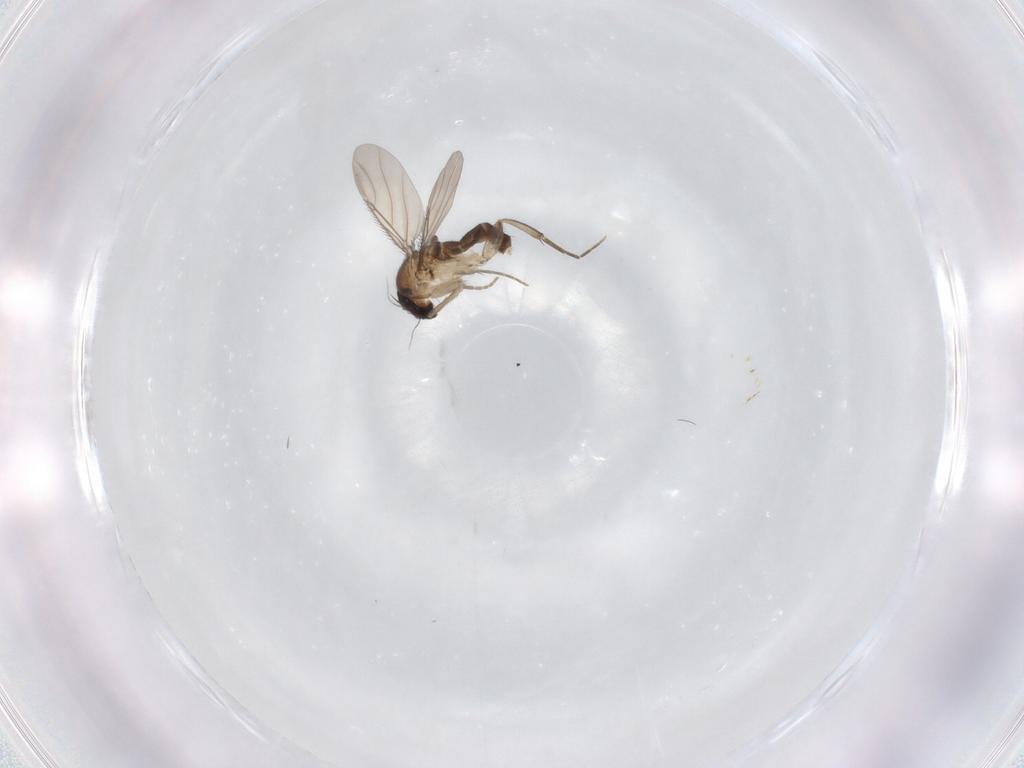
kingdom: Animalia
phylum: Arthropoda
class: Insecta
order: Diptera
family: Phoridae
